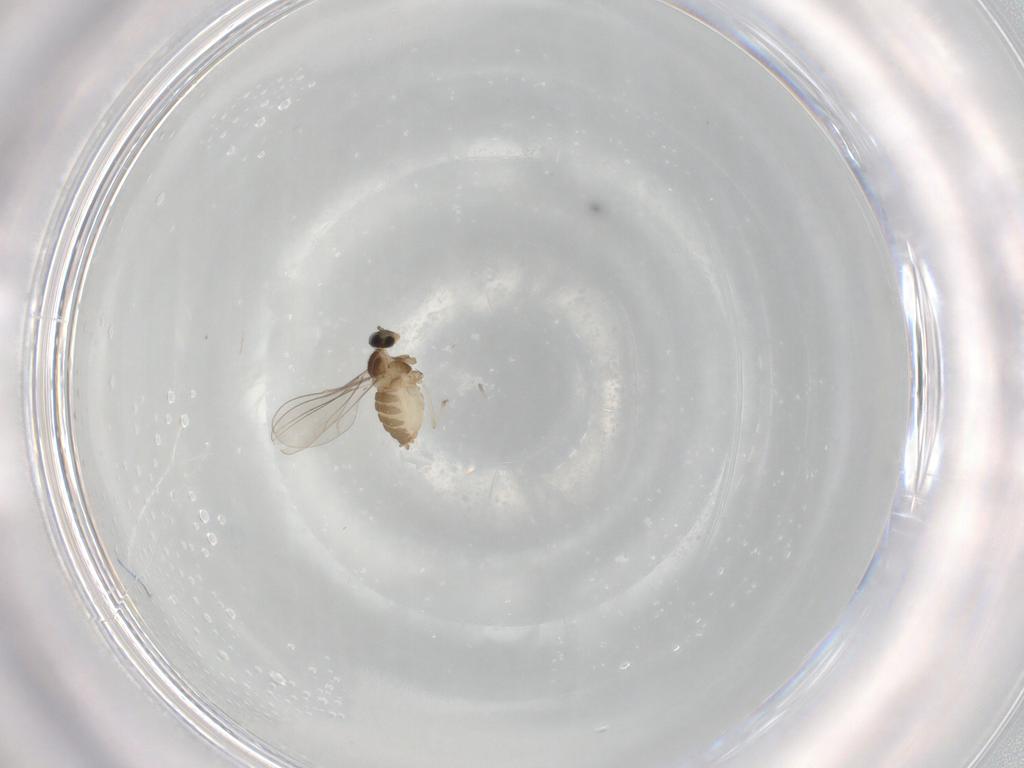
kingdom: Animalia
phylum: Arthropoda
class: Insecta
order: Diptera
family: Cecidomyiidae
